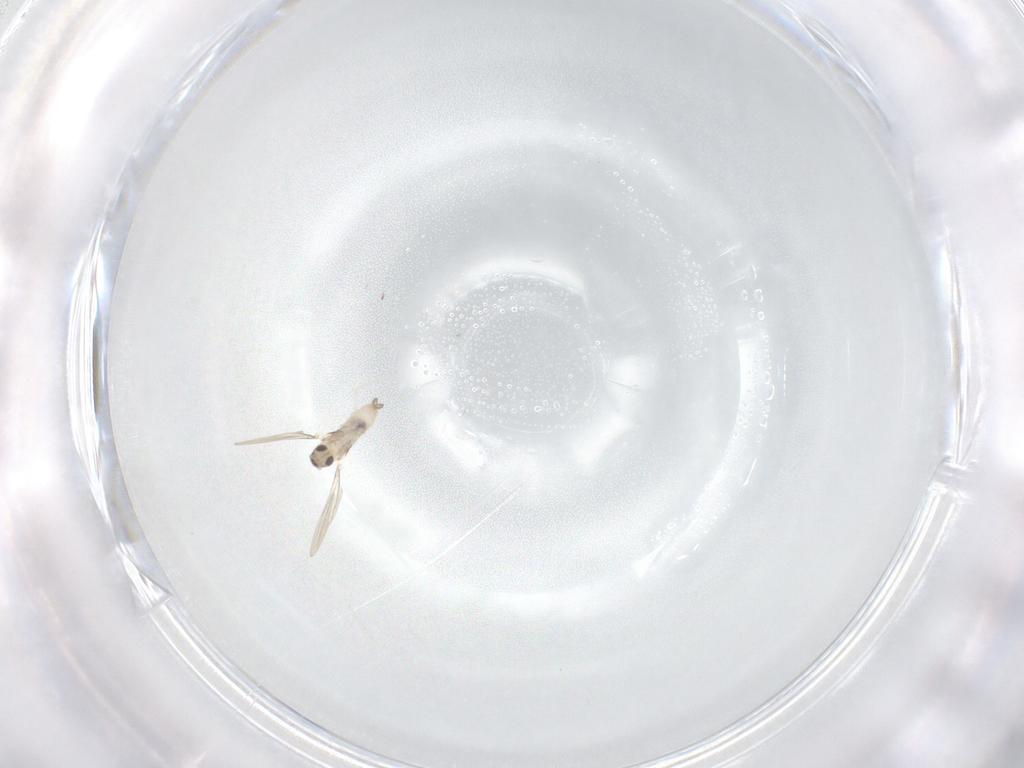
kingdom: Animalia
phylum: Arthropoda
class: Insecta
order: Diptera
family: Cecidomyiidae
